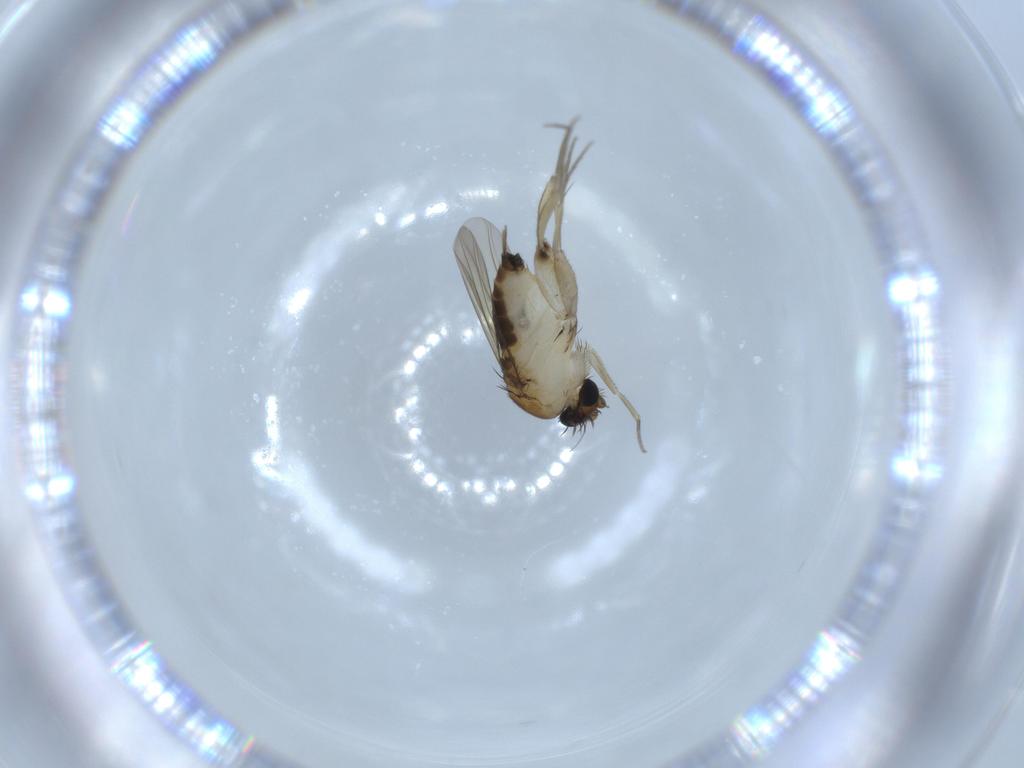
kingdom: Animalia
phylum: Arthropoda
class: Insecta
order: Diptera
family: Phoridae
